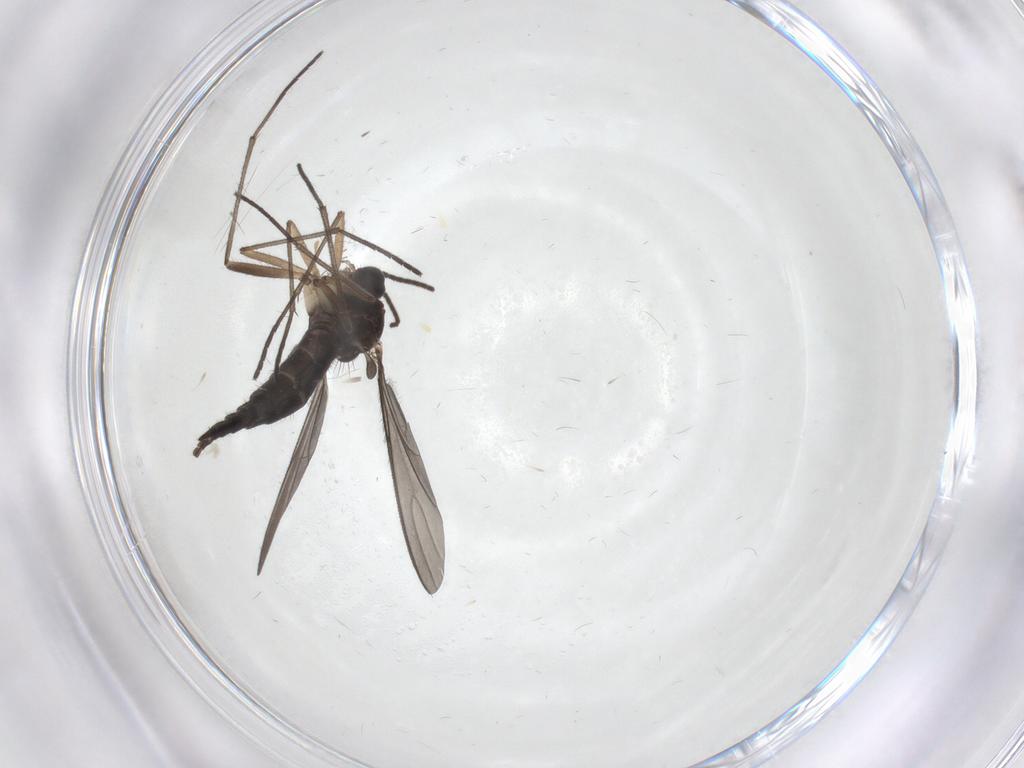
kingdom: Animalia
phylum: Arthropoda
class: Insecta
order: Diptera
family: Sciaridae
